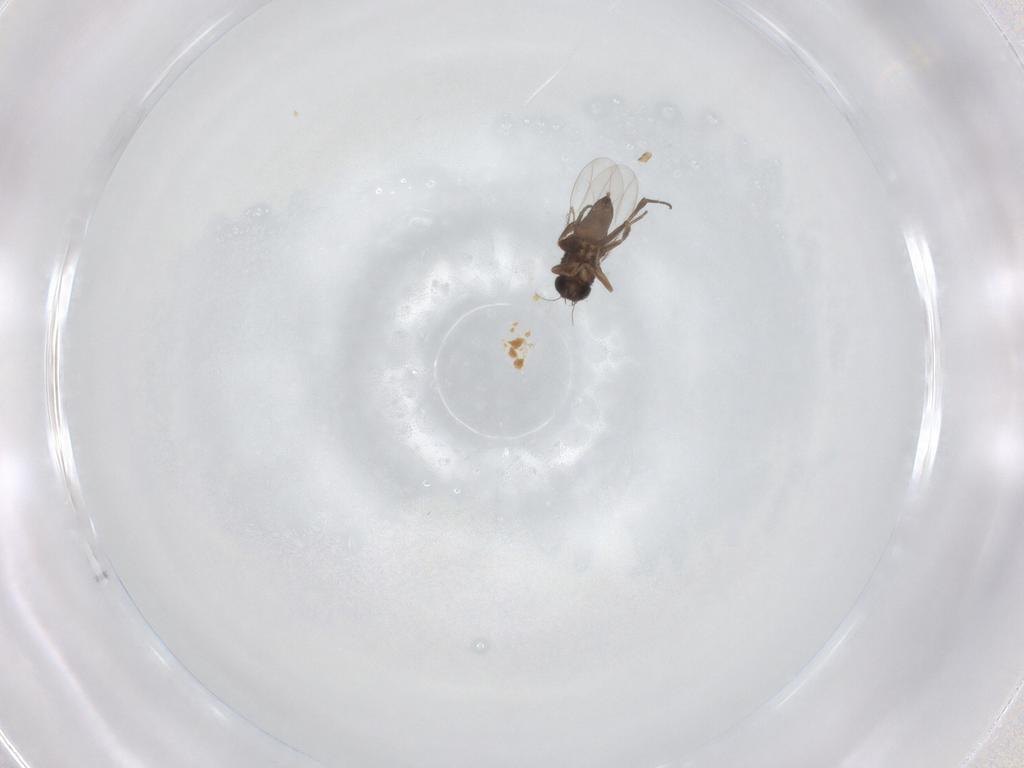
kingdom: Animalia
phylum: Arthropoda
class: Insecta
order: Diptera
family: Phoridae
